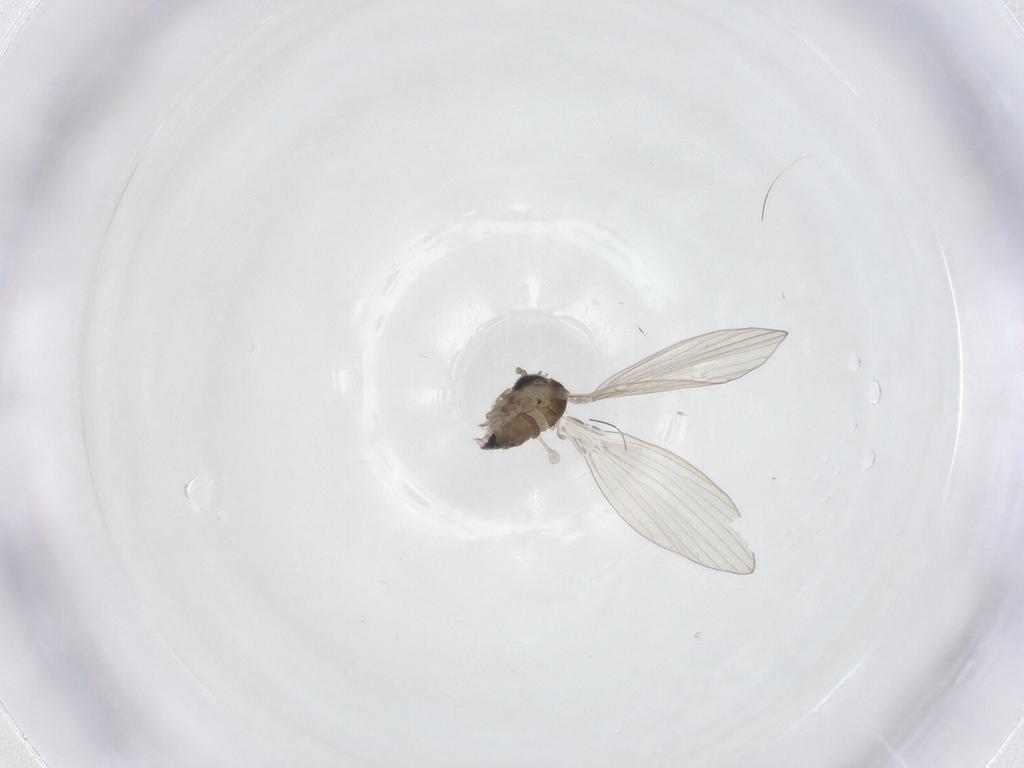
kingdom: Animalia
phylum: Arthropoda
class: Insecta
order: Diptera
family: Psychodidae
